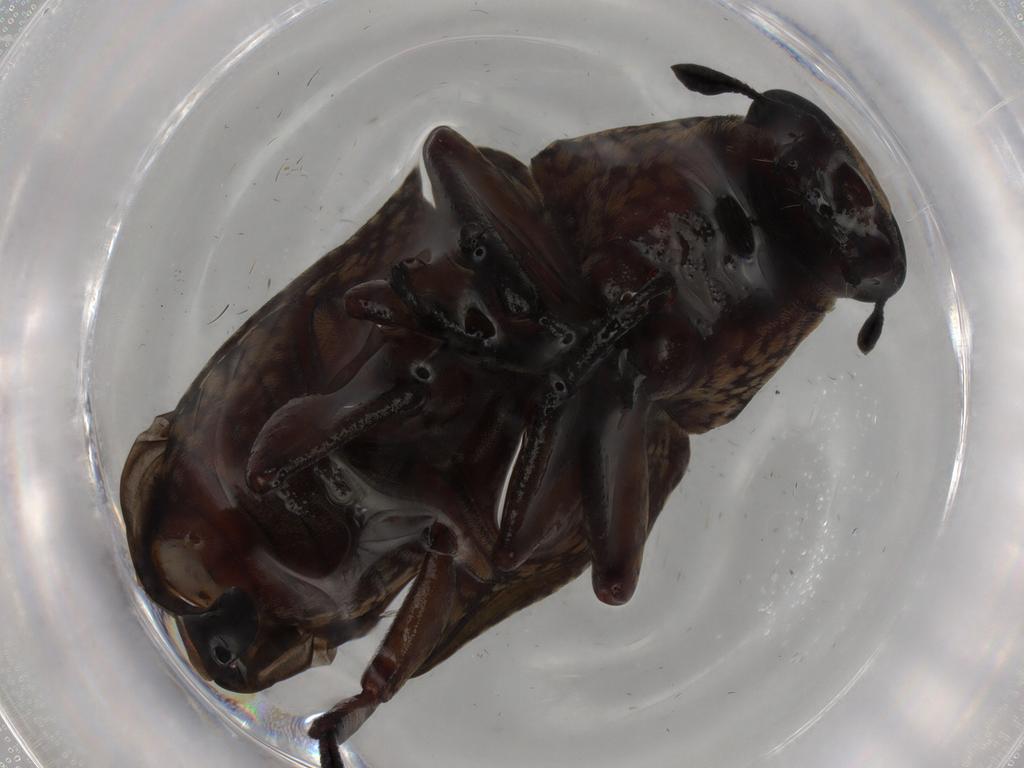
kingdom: Animalia
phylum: Arthropoda
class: Insecta
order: Coleoptera
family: Anthribidae
